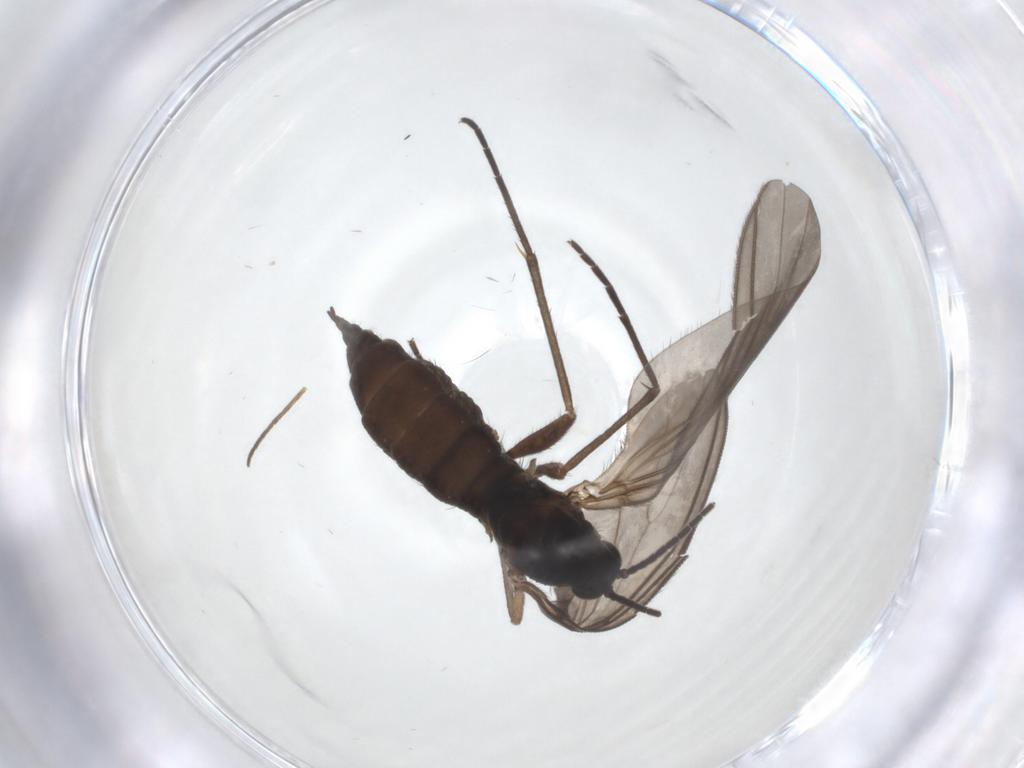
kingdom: Animalia
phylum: Arthropoda
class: Insecta
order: Diptera
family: Phoridae
